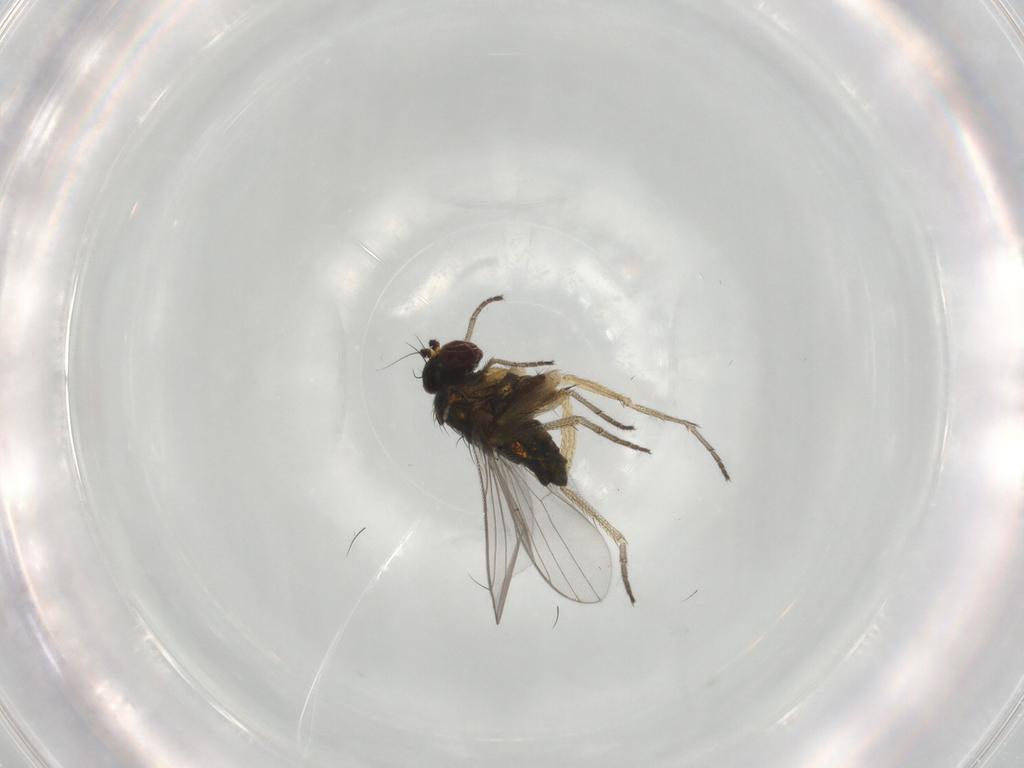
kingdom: Animalia
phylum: Arthropoda
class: Insecta
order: Diptera
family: Dolichopodidae
